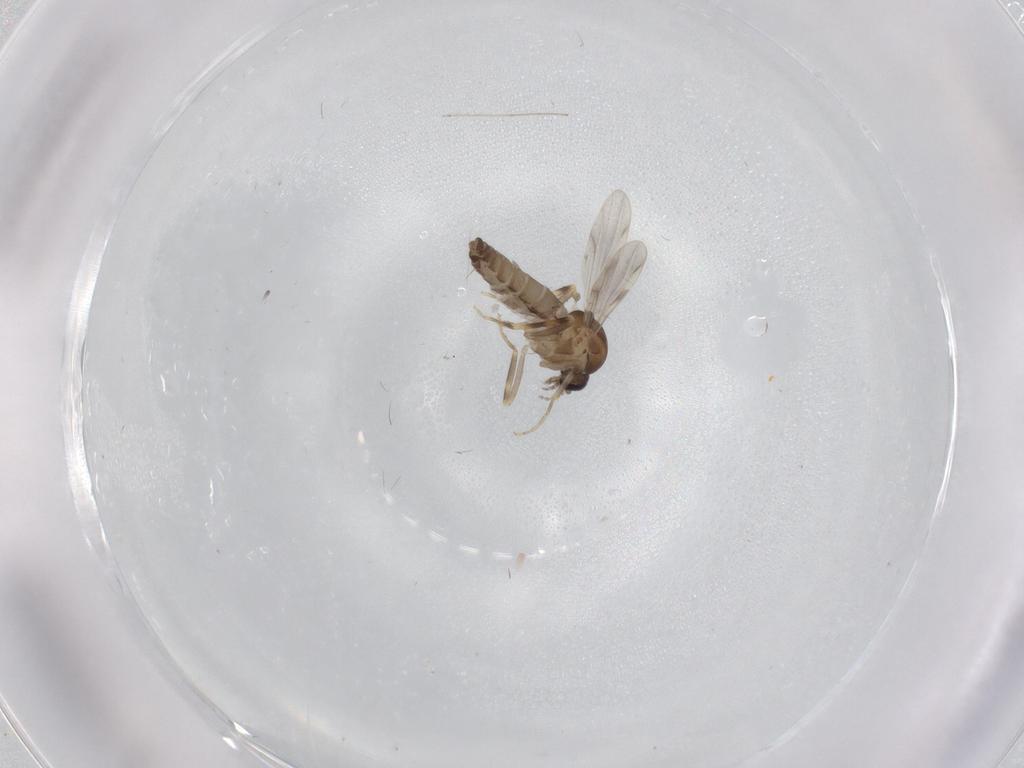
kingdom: Animalia
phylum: Arthropoda
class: Insecta
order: Diptera
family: Ceratopogonidae
